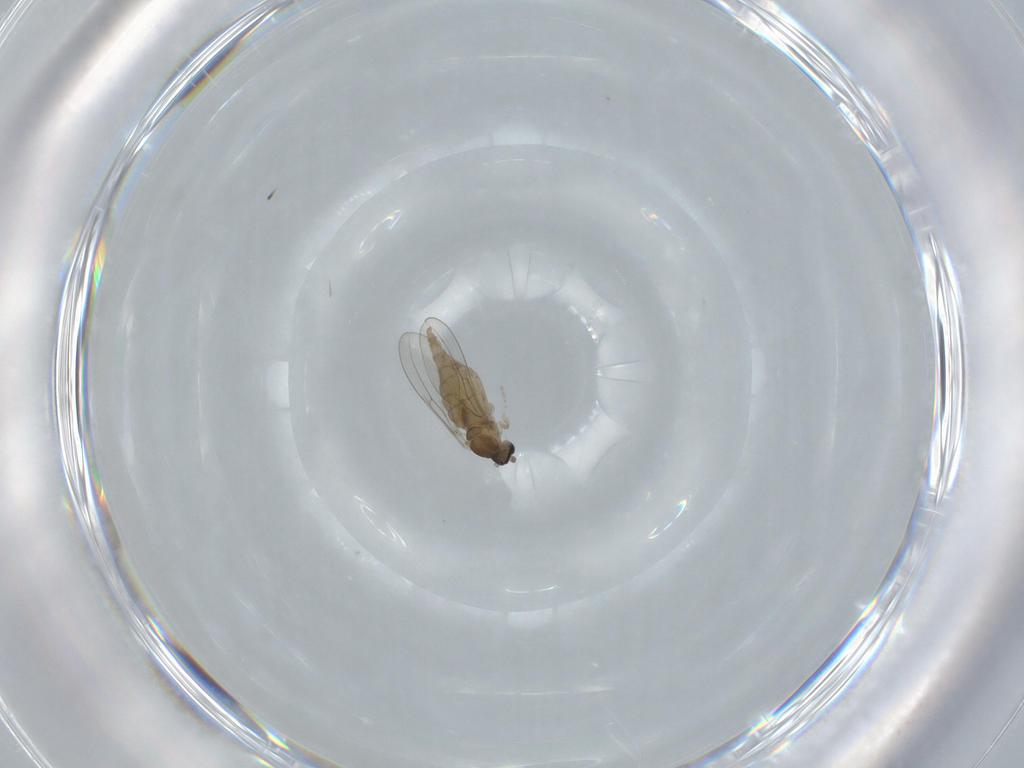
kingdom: Animalia
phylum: Arthropoda
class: Insecta
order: Diptera
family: Cecidomyiidae
